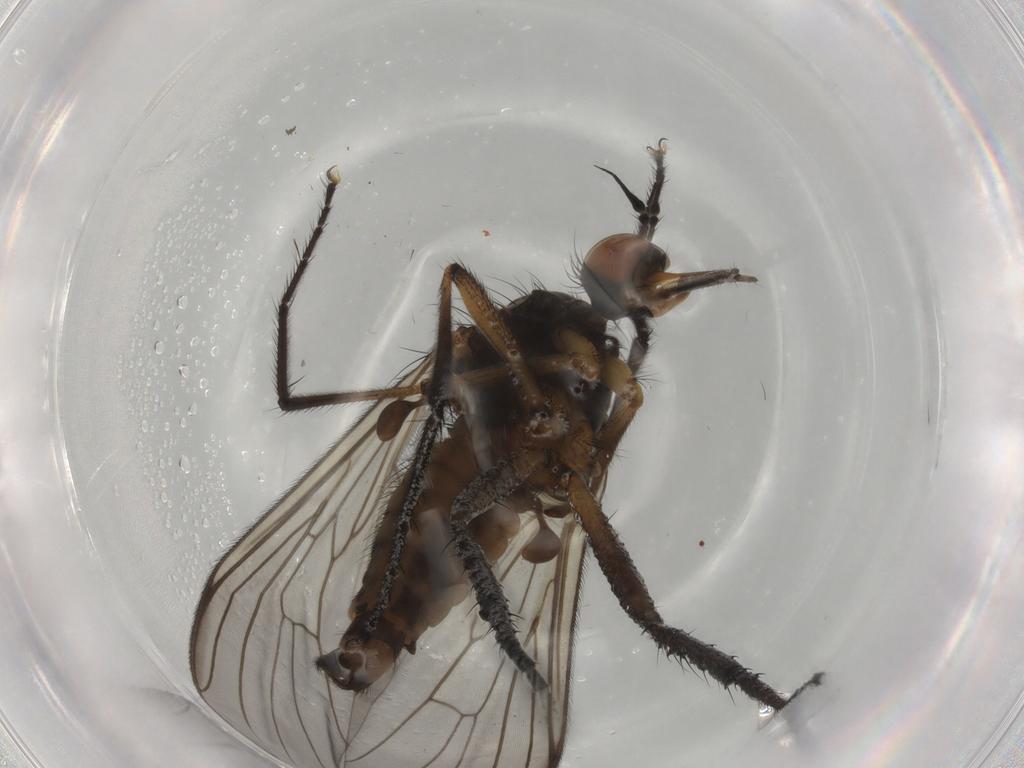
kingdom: Animalia
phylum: Arthropoda
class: Insecta
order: Diptera
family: Empididae
